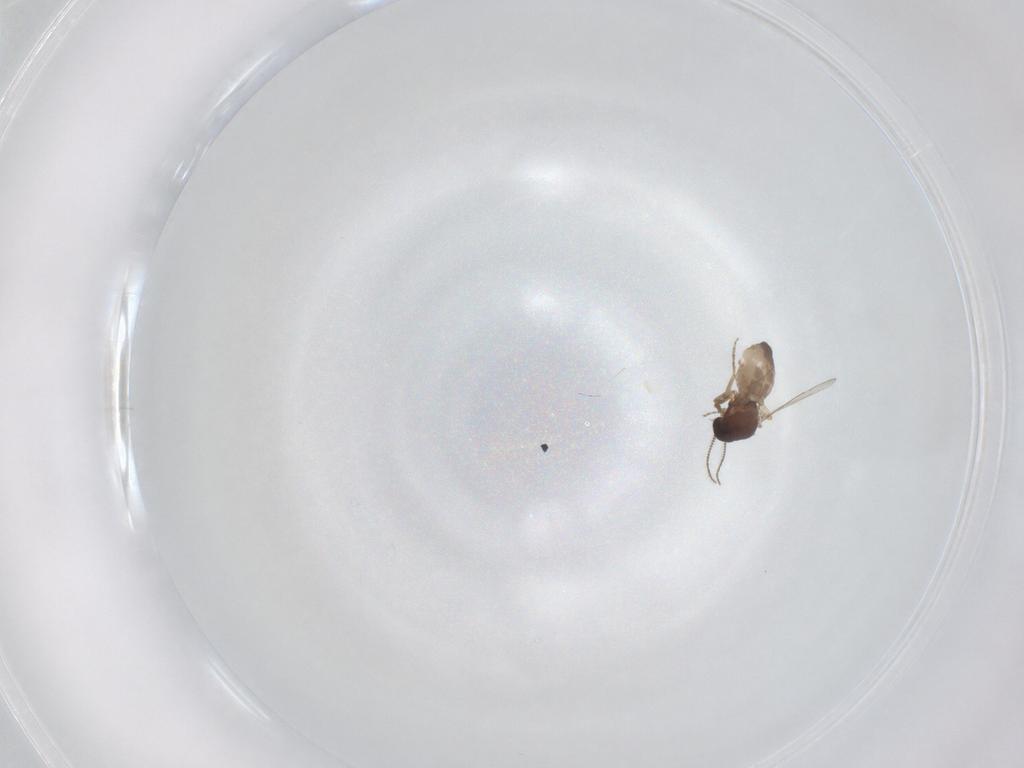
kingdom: Animalia
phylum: Arthropoda
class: Insecta
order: Diptera
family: Ceratopogonidae
